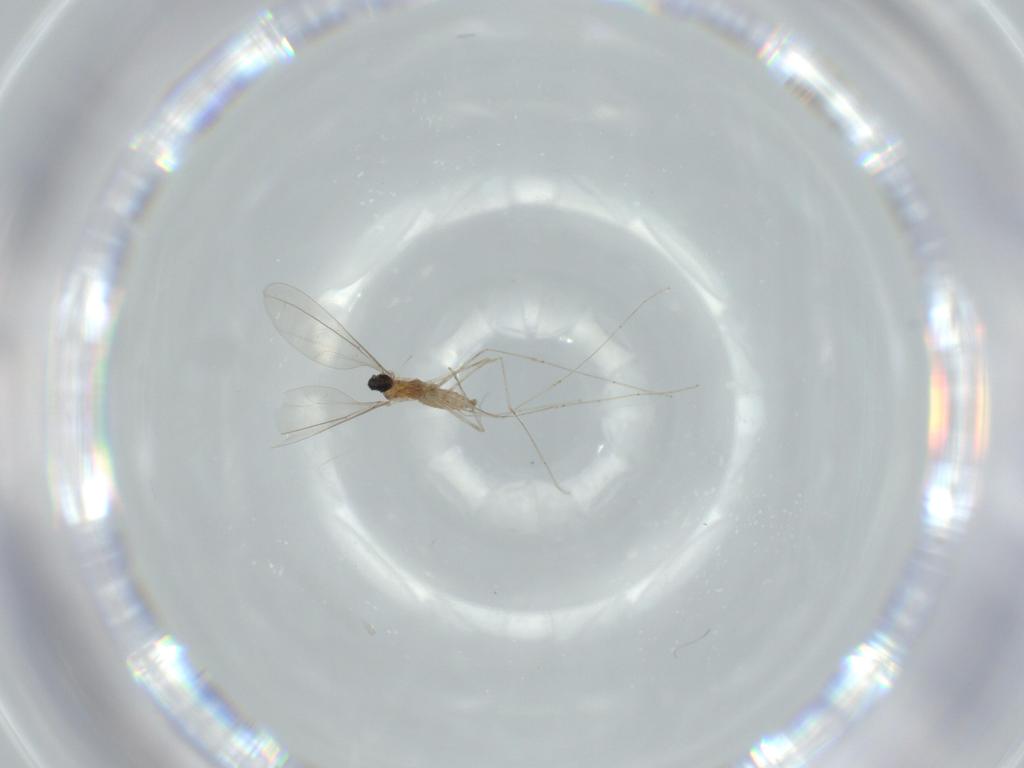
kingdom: Animalia
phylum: Arthropoda
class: Insecta
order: Diptera
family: Cecidomyiidae
